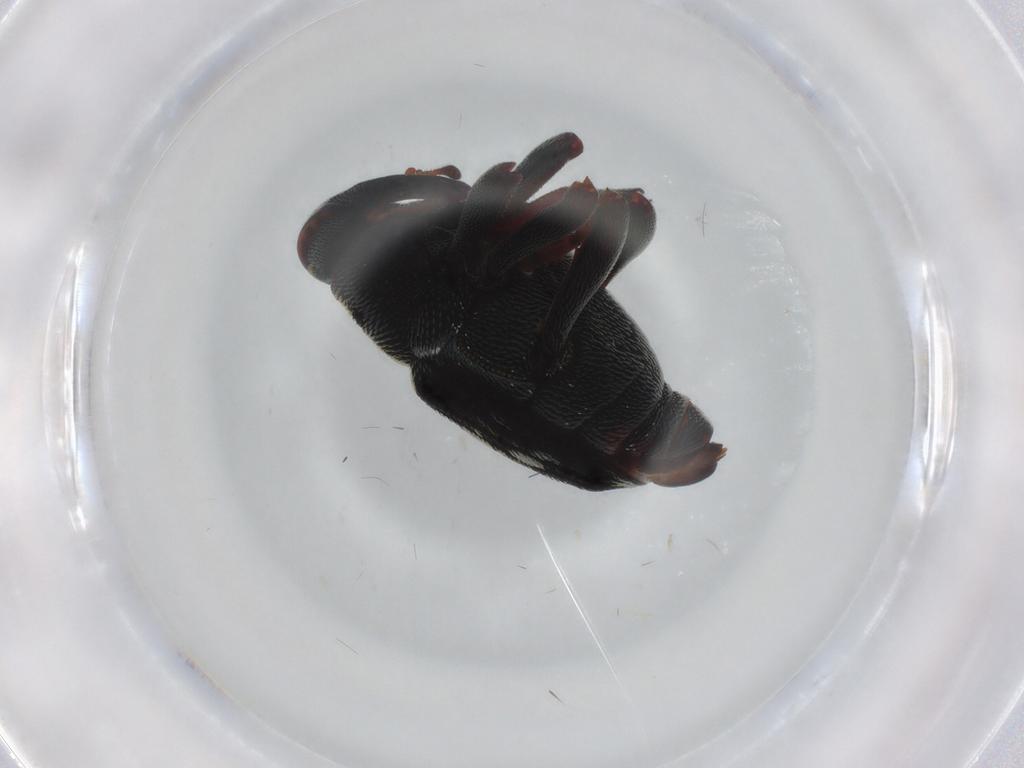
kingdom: Animalia
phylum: Arthropoda
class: Insecta
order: Coleoptera
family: Curculionidae
